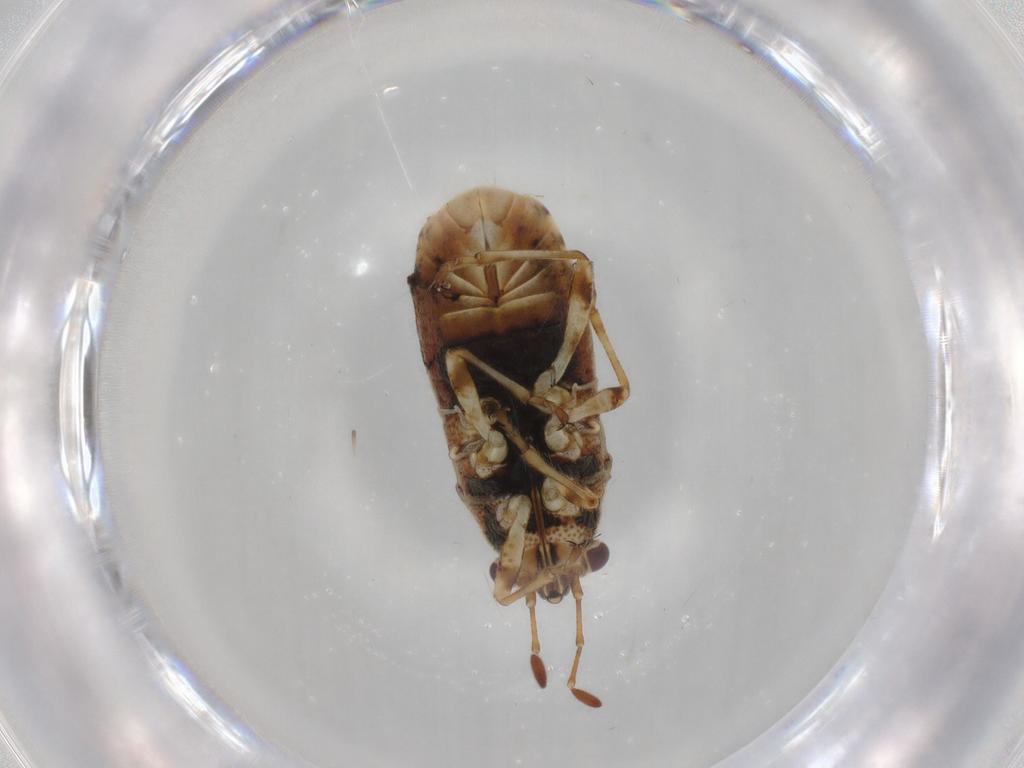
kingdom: Animalia
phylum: Arthropoda
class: Insecta
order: Hemiptera
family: Lygaeidae
